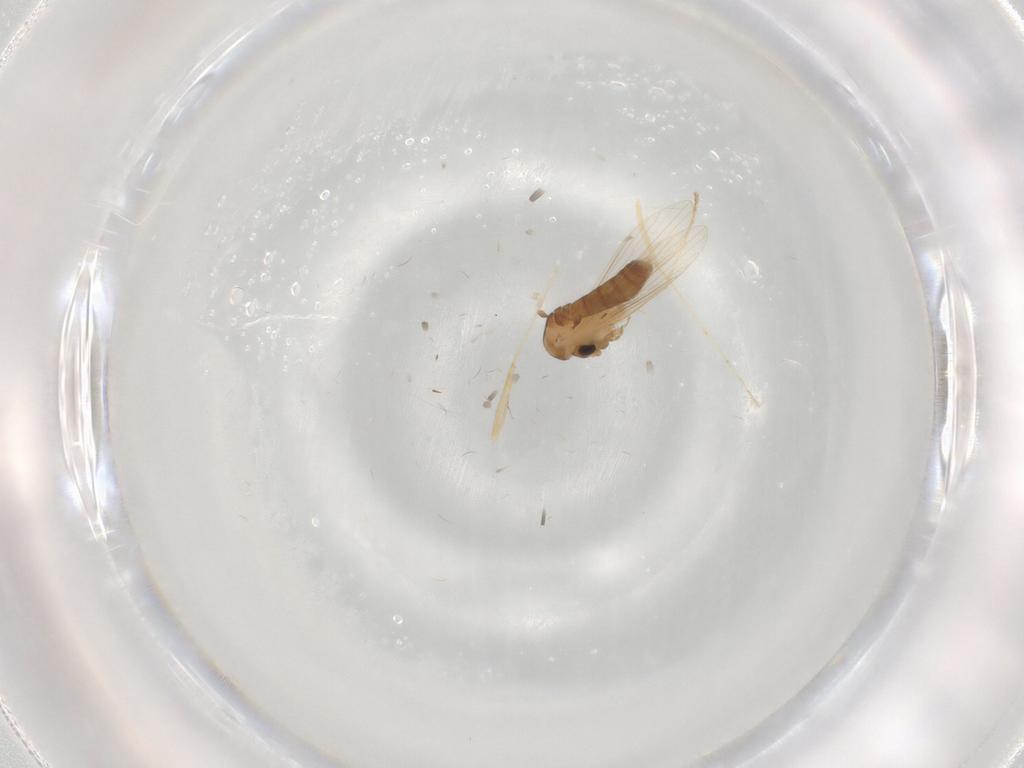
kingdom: Animalia
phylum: Arthropoda
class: Insecta
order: Diptera
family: Psychodidae
